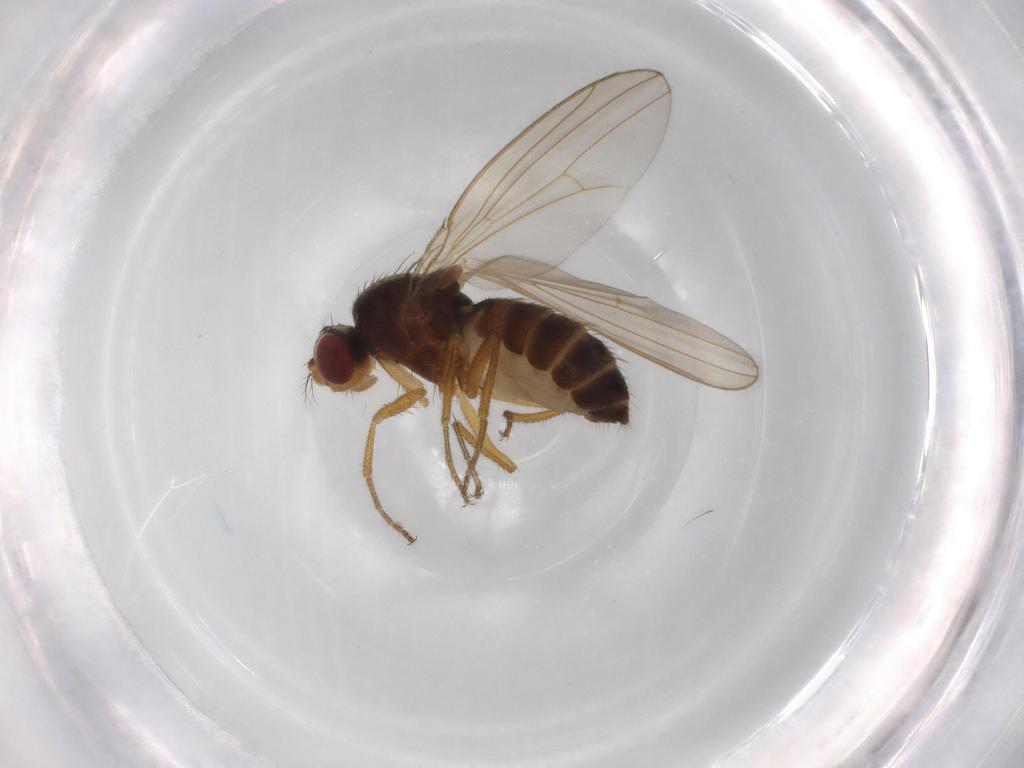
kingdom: Animalia
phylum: Arthropoda
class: Insecta
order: Diptera
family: Drosophilidae
